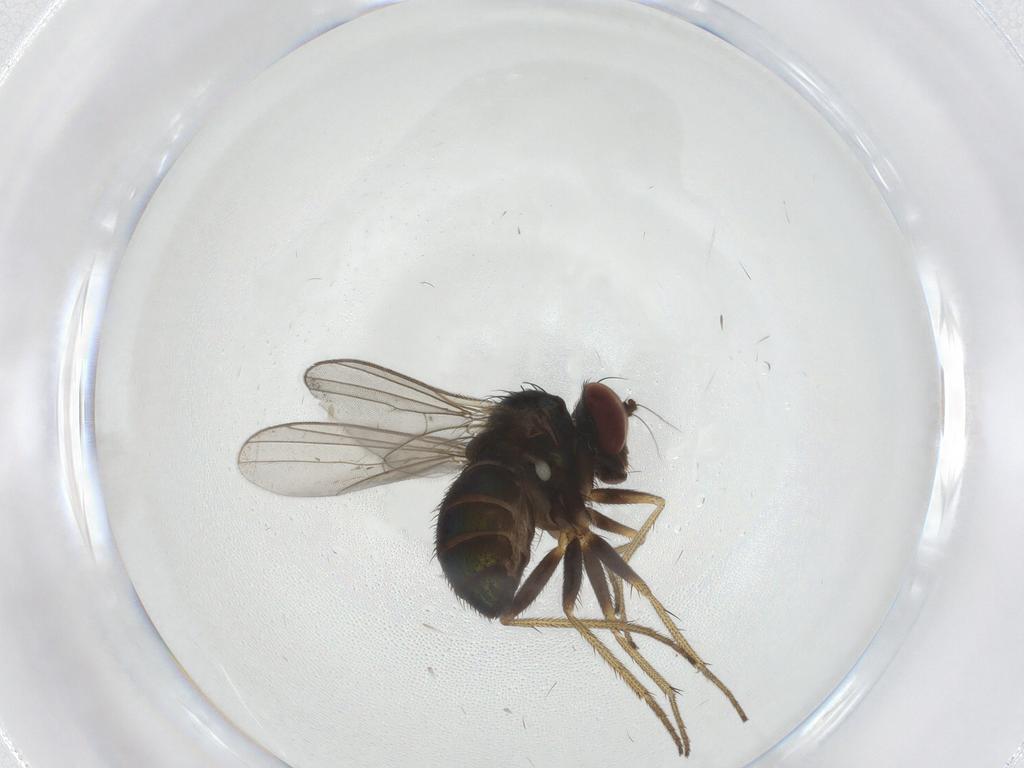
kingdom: Animalia
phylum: Arthropoda
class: Insecta
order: Diptera
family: Dolichopodidae
